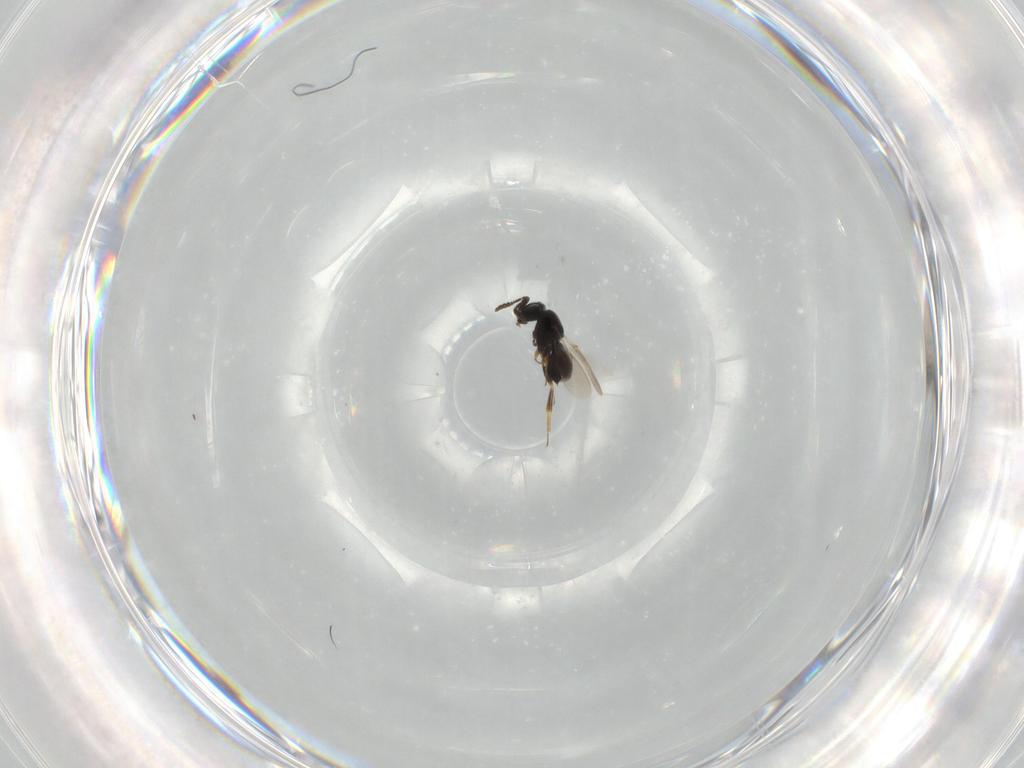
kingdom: Animalia
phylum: Arthropoda
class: Insecta
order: Hymenoptera
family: Scelionidae
